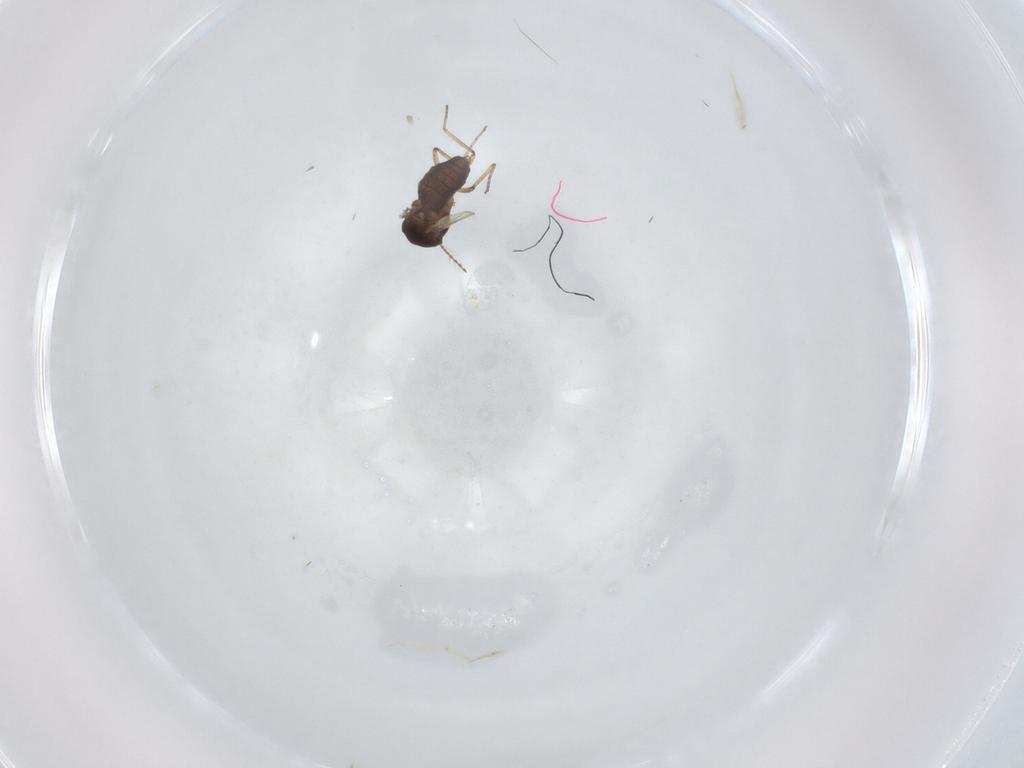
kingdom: Animalia
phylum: Arthropoda
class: Insecta
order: Diptera
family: Ceratopogonidae
